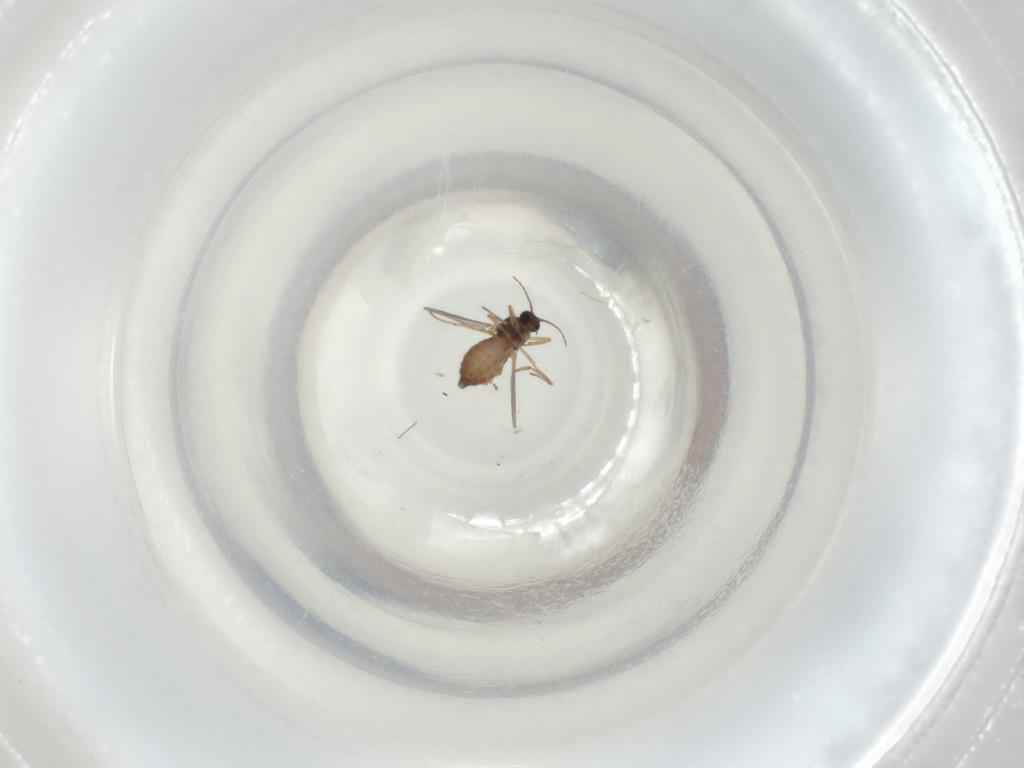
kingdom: Animalia
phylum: Arthropoda
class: Insecta
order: Diptera
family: Ceratopogonidae
